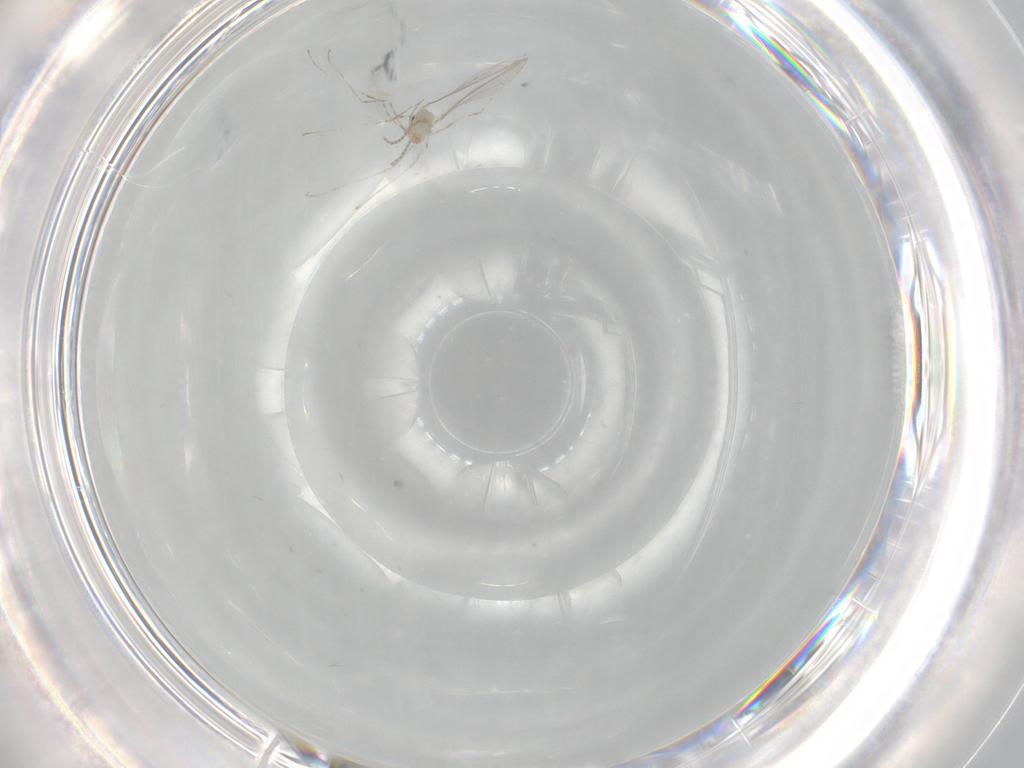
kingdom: Animalia
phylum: Arthropoda
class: Insecta
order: Diptera
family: Cecidomyiidae
